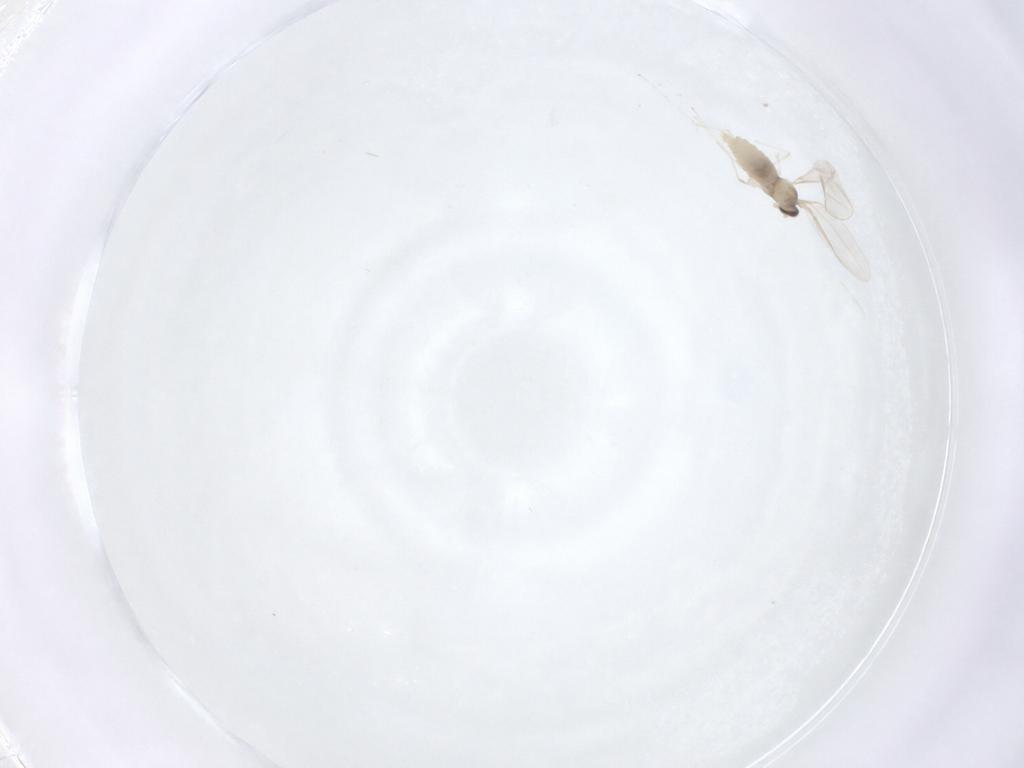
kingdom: Animalia
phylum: Arthropoda
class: Insecta
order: Diptera
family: Cecidomyiidae
